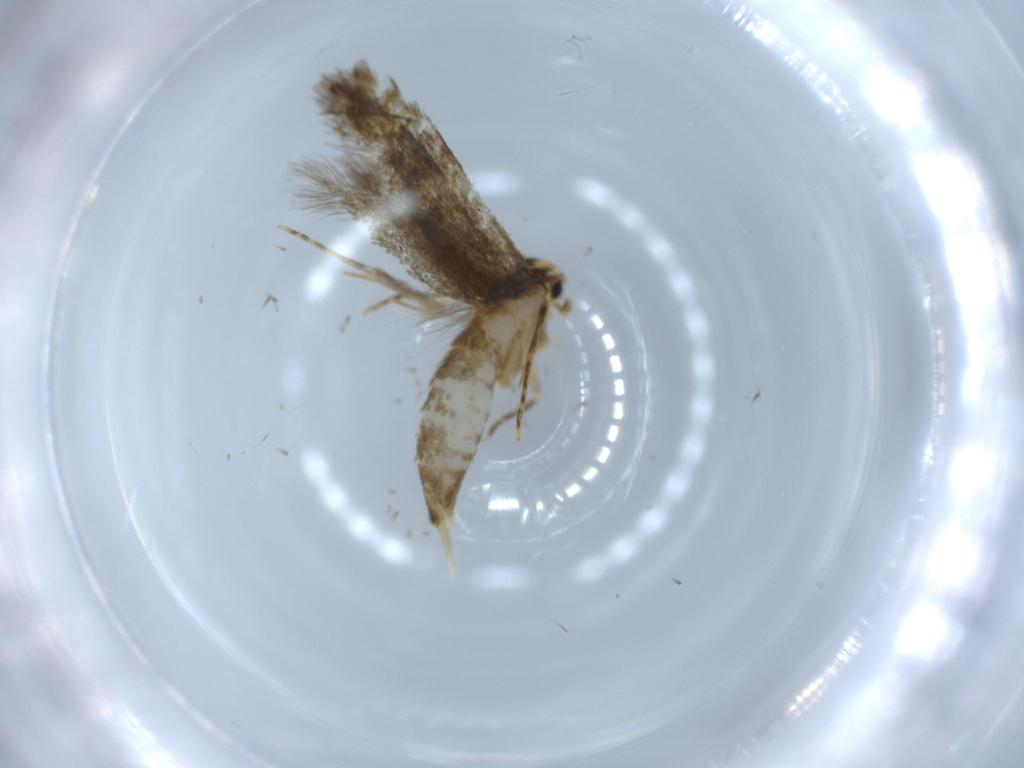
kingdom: Animalia
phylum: Arthropoda
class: Insecta
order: Lepidoptera
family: Tineidae
